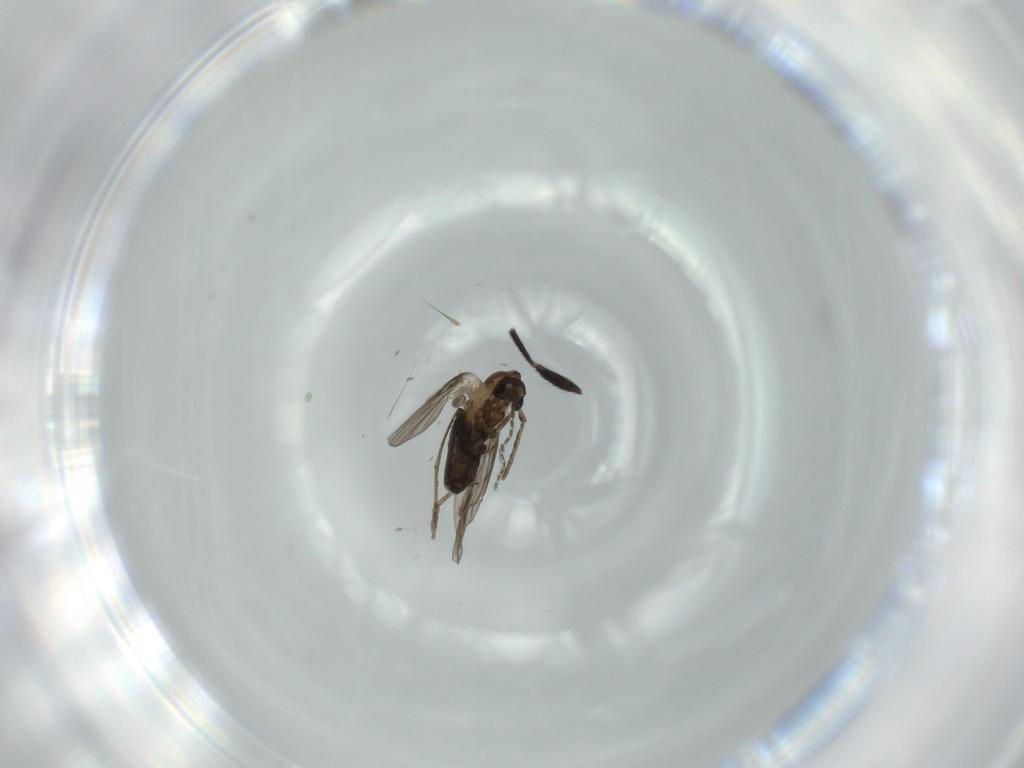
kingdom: Animalia
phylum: Arthropoda
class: Insecta
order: Diptera
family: Psychodidae
